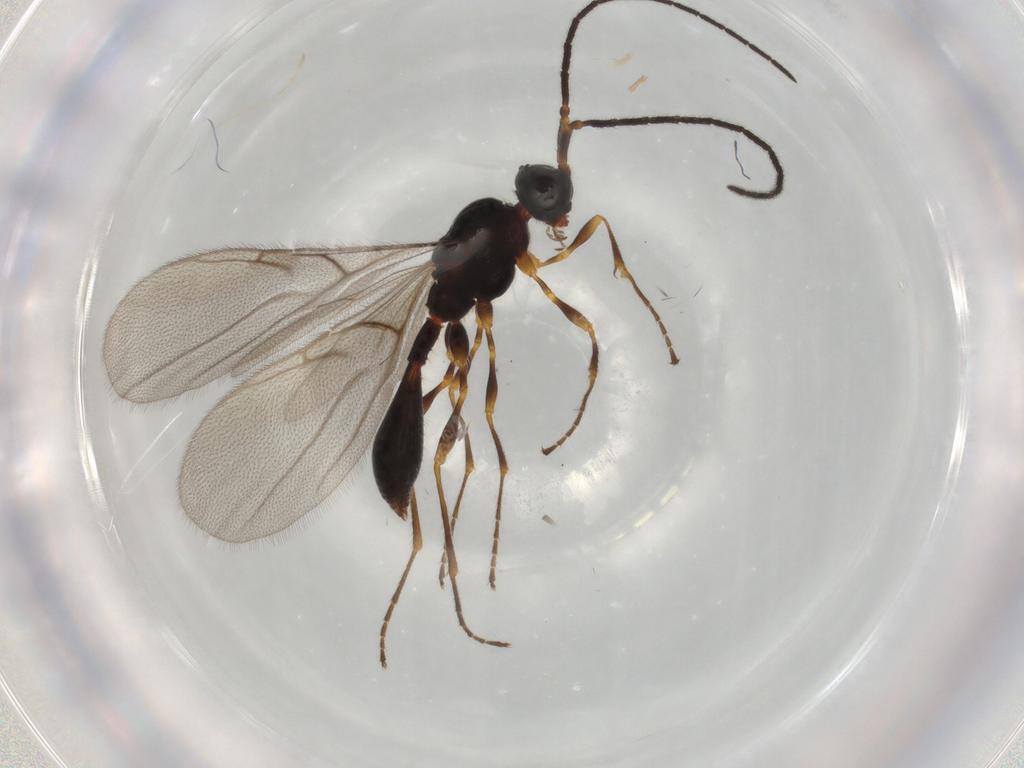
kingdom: Animalia
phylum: Arthropoda
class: Insecta
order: Hymenoptera
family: Diapriidae
